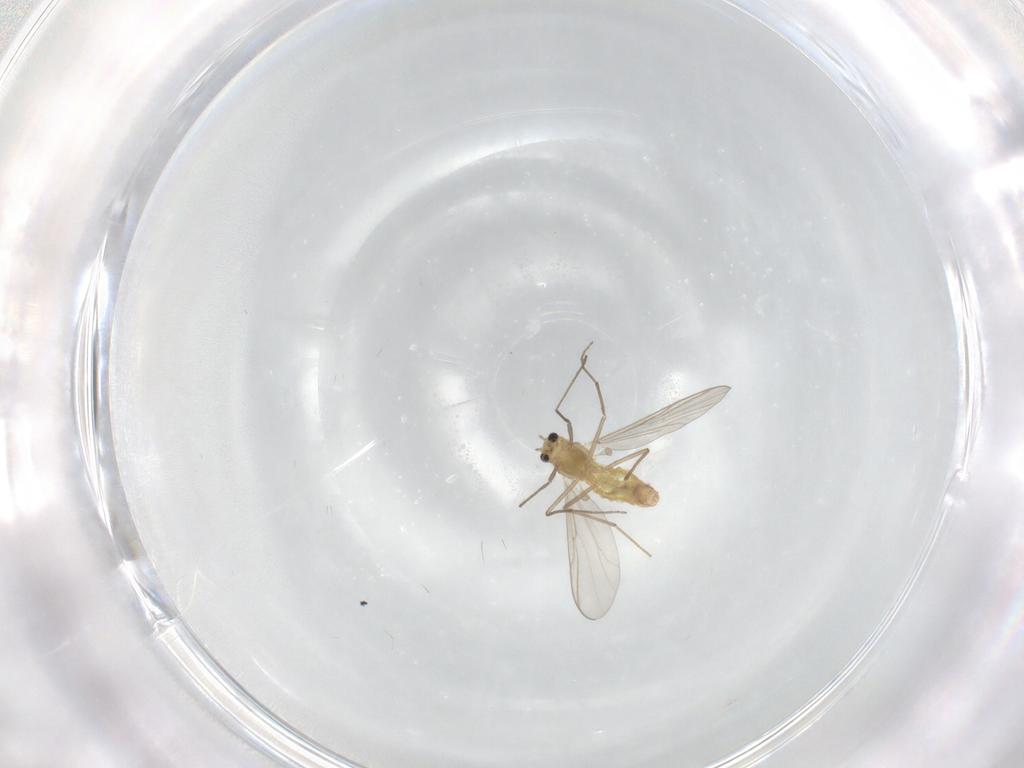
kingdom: Animalia
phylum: Arthropoda
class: Insecta
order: Diptera
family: Chironomidae
